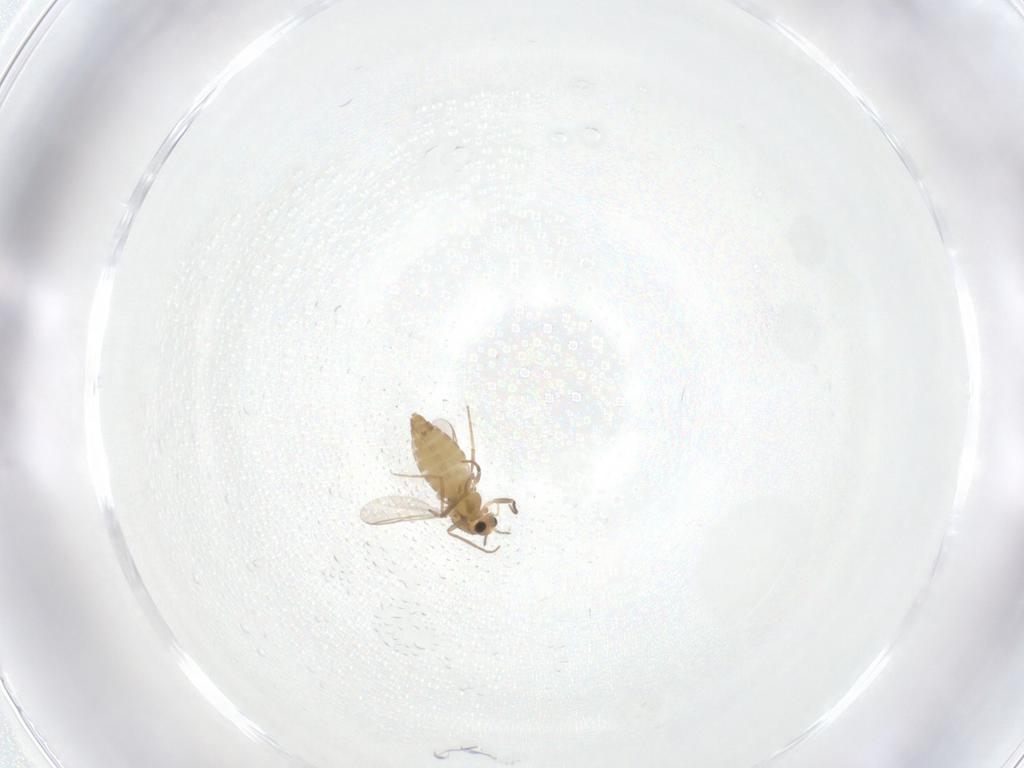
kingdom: Animalia
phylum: Arthropoda
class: Insecta
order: Diptera
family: Chironomidae
